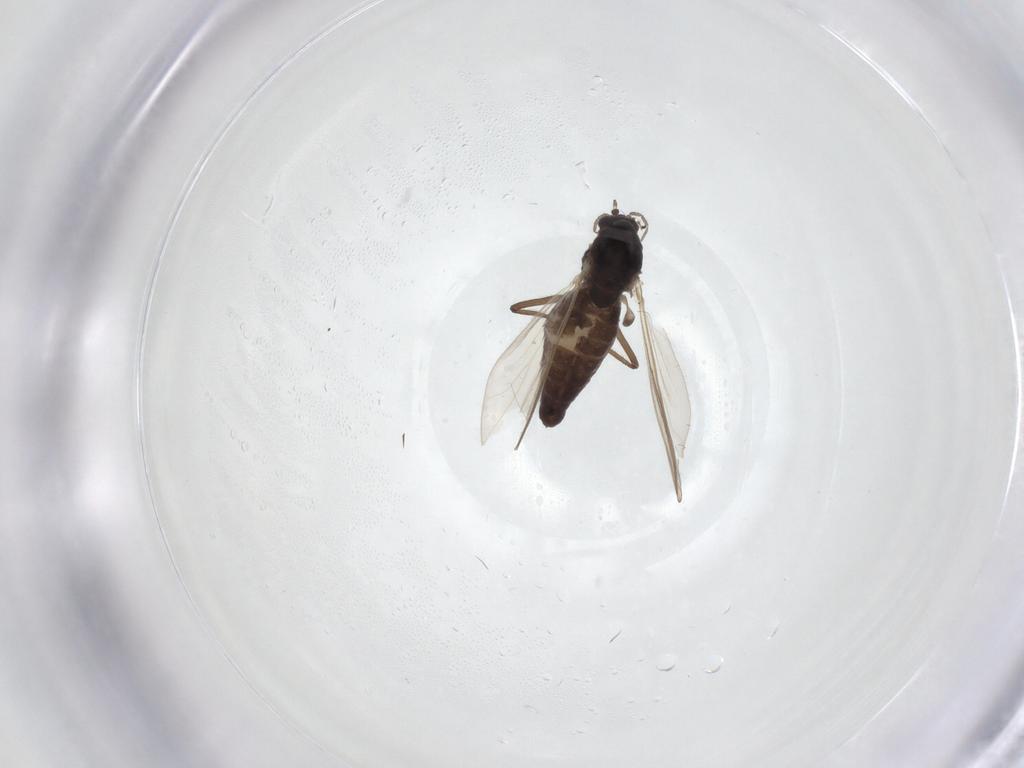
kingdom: Animalia
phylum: Arthropoda
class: Insecta
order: Diptera
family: Chironomidae
